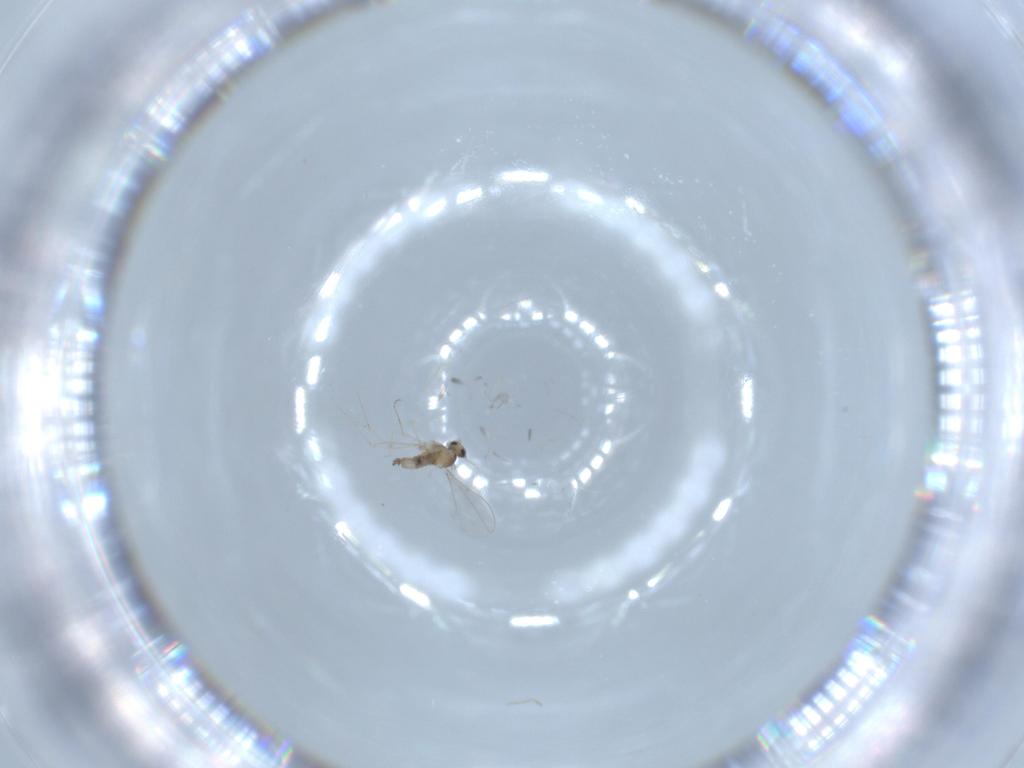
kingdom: Animalia
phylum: Arthropoda
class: Insecta
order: Diptera
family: Cecidomyiidae
